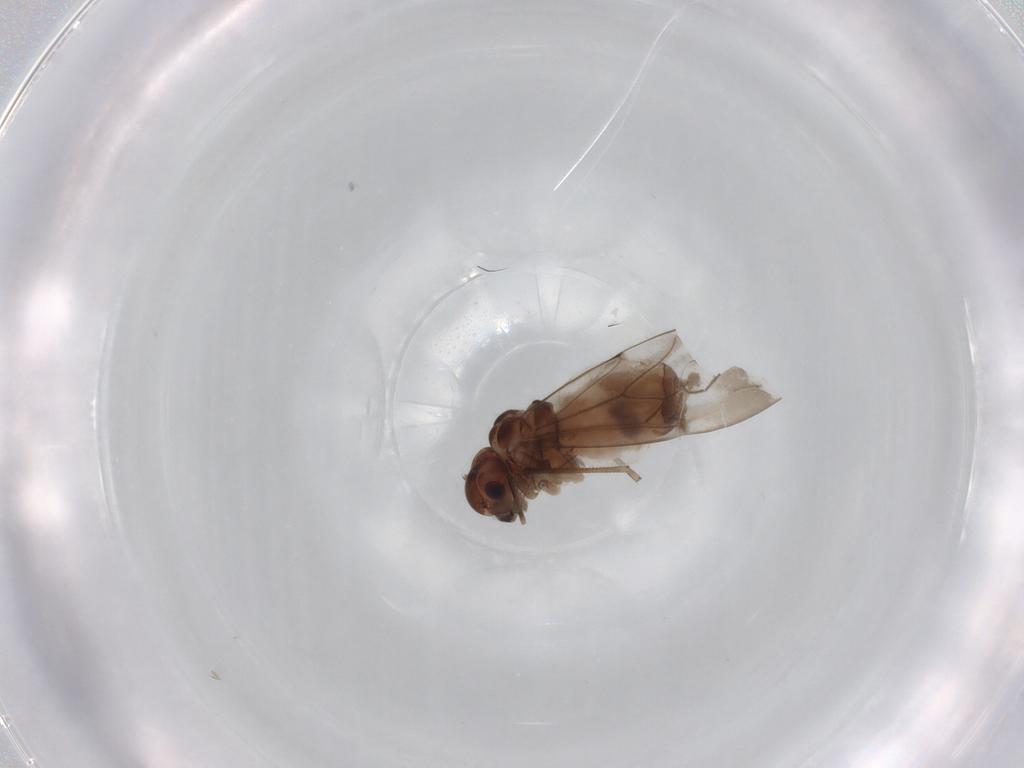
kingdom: Animalia
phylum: Arthropoda
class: Insecta
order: Psocodea
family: Peripsocidae
